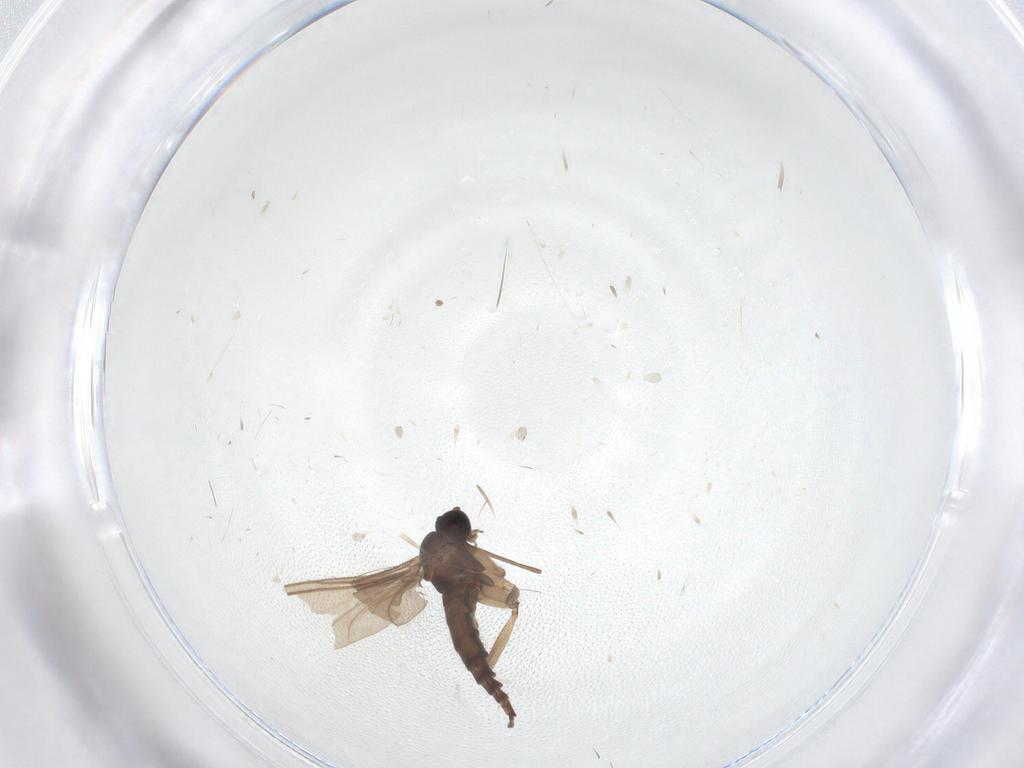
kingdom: Animalia
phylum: Arthropoda
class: Insecta
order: Diptera
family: Sciaridae
